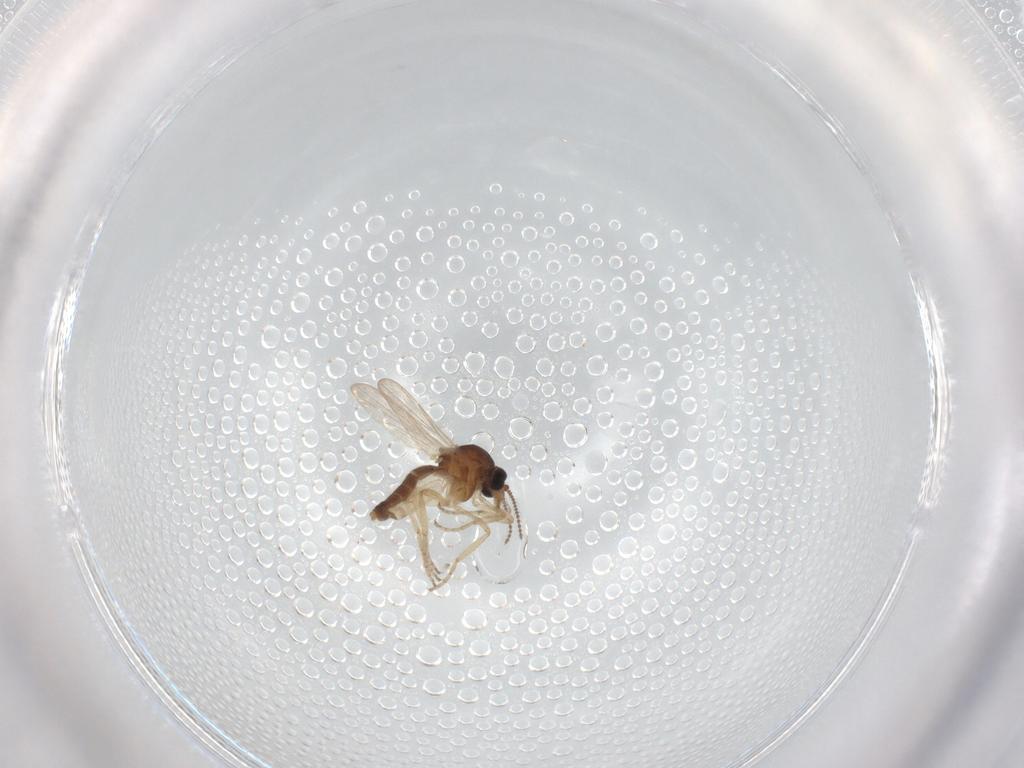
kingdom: Animalia
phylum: Arthropoda
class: Insecta
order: Diptera
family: Ceratopogonidae
